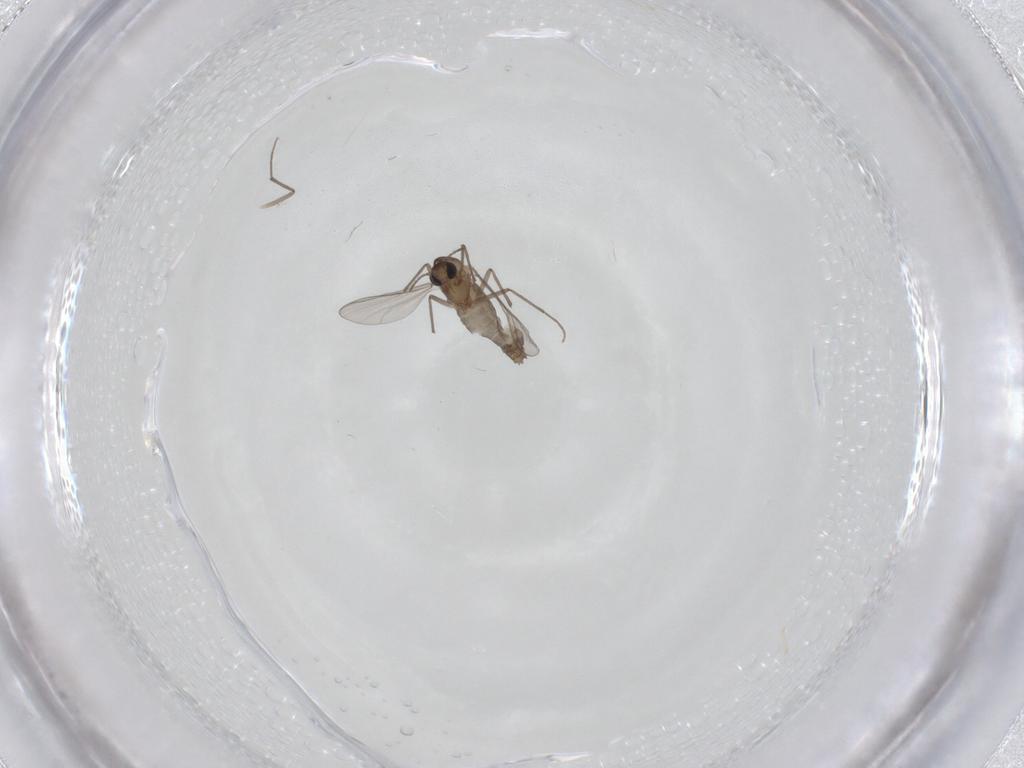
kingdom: Animalia
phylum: Arthropoda
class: Insecta
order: Diptera
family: Chironomidae
